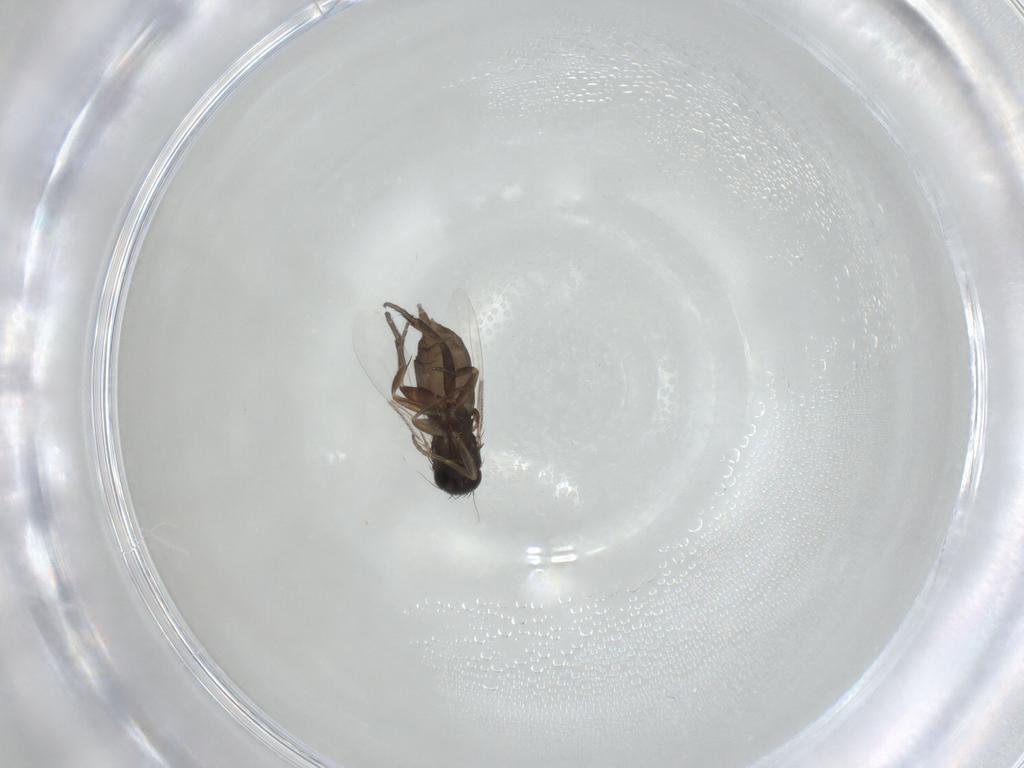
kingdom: Animalia
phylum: Arthropoda
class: Insecta
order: Diptera
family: Phoridae
